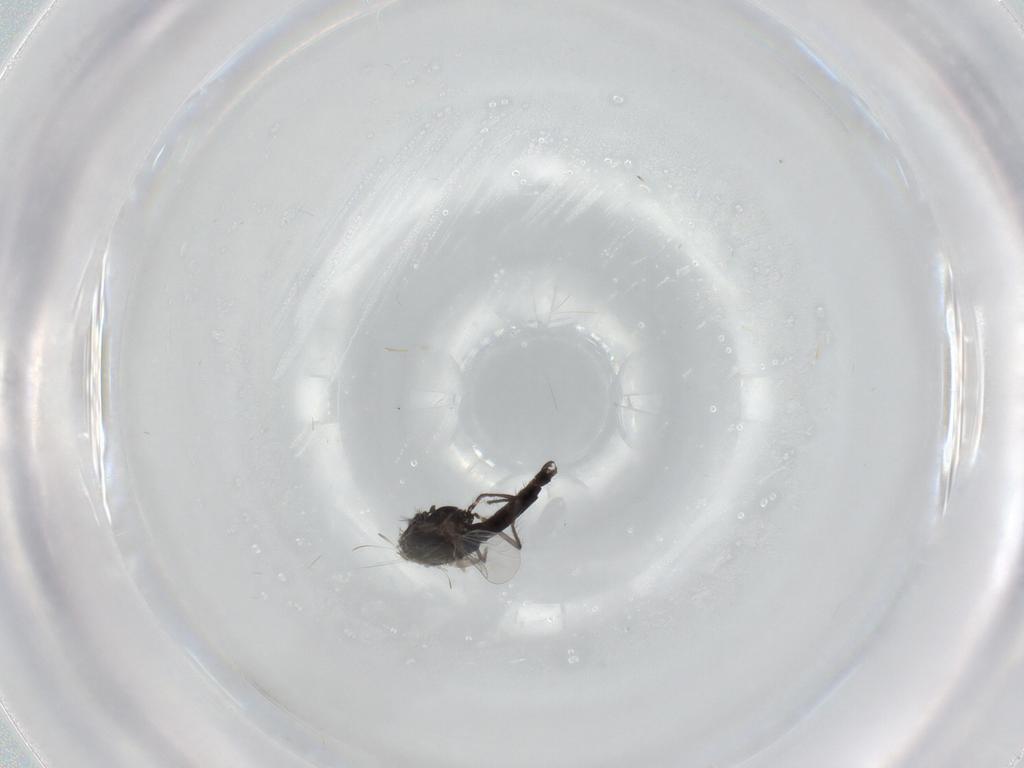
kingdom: Animalia
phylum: Arthropoda
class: Insecta
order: Diptera
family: Chironomidae
